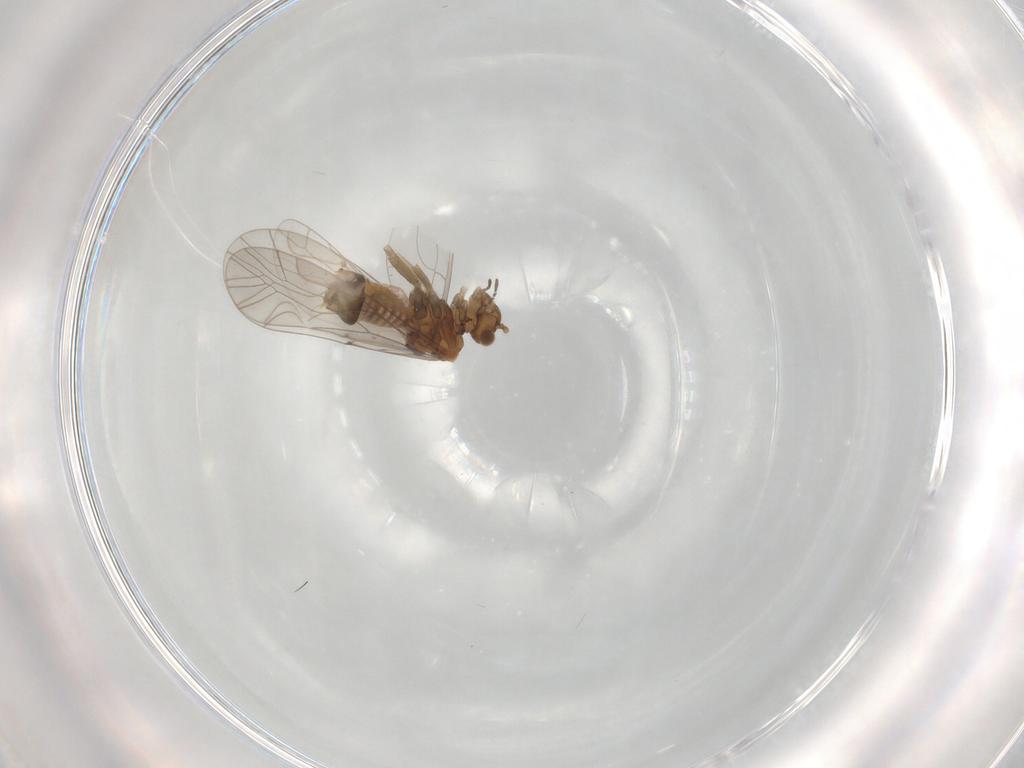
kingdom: Animalia
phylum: Arthropoda
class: Insecta
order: Psocodea
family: Lachesillidae
